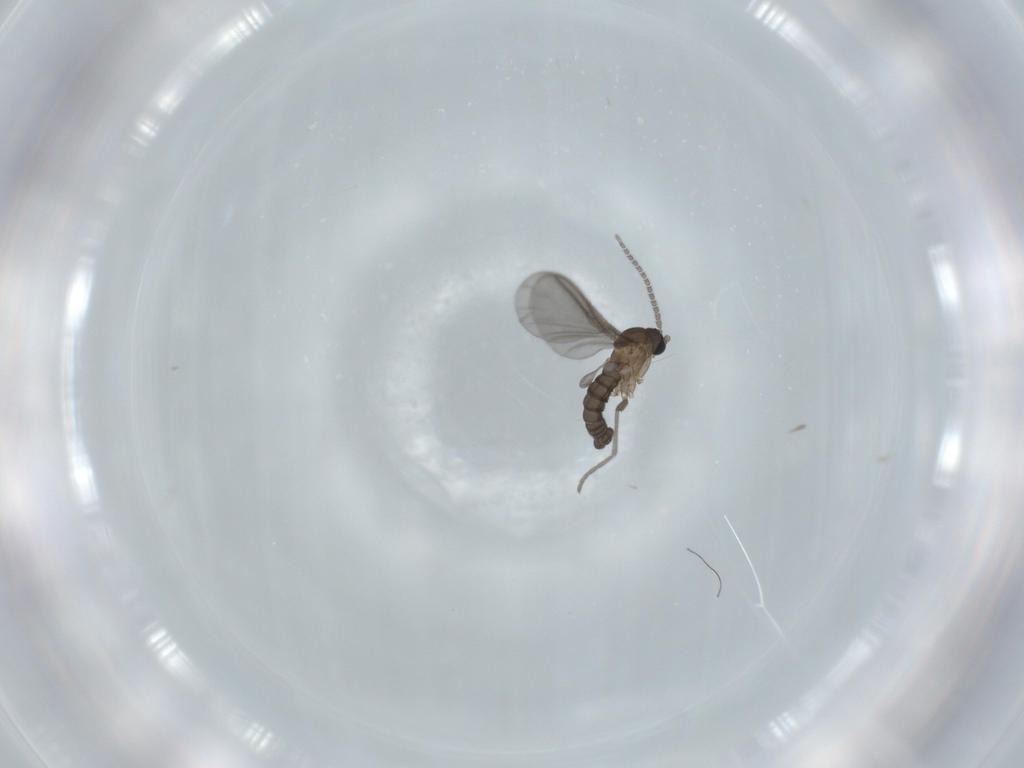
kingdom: Animalia
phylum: Arthropoda
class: Insecta
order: Diptera
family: Sciaridae
